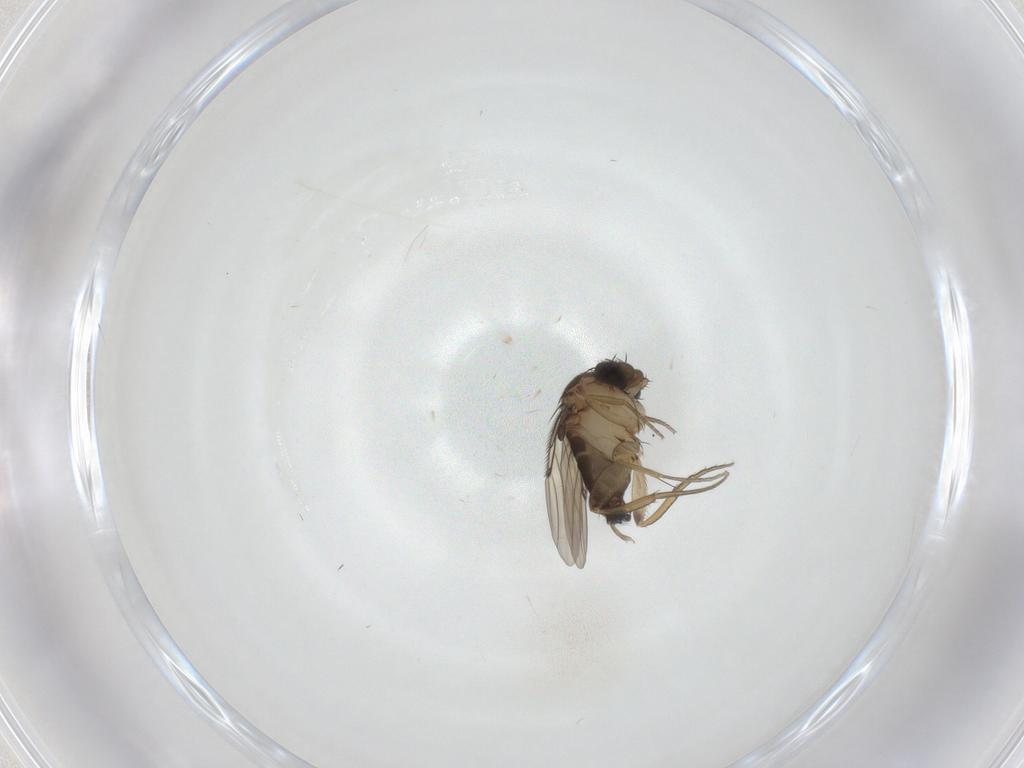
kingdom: Animalia
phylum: Arthropoda
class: Insecta
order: Diptera
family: Phoridae
